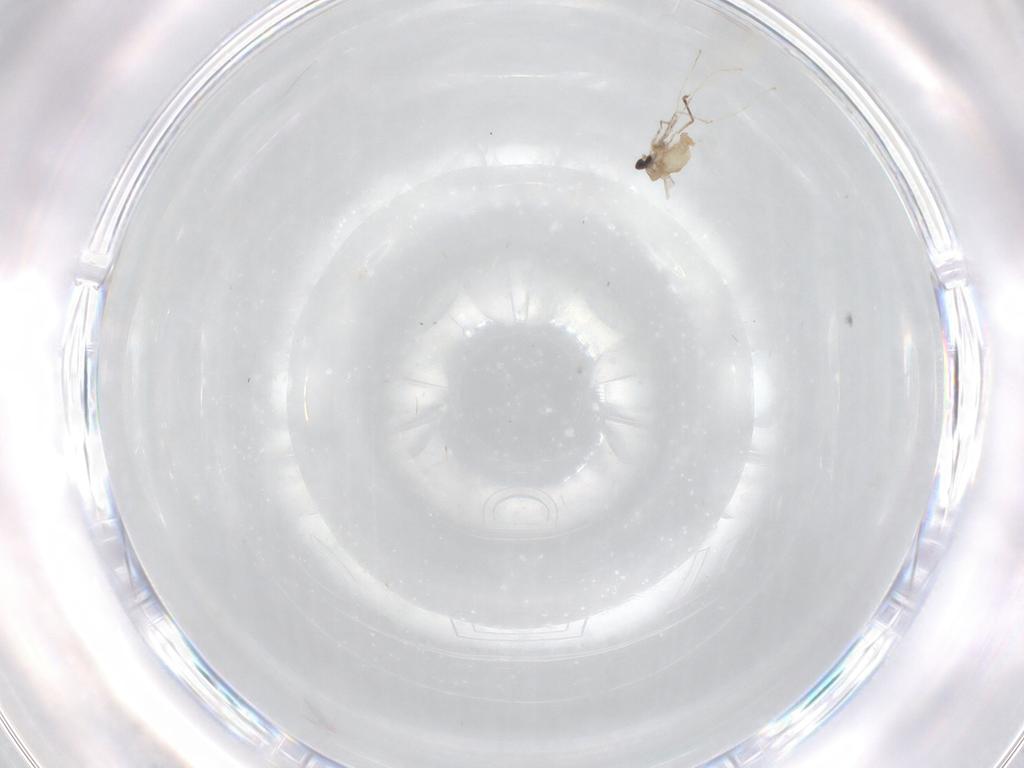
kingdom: Animalia
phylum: Arthropoda
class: Insecta
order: Diptera
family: Cecidomyiidae
